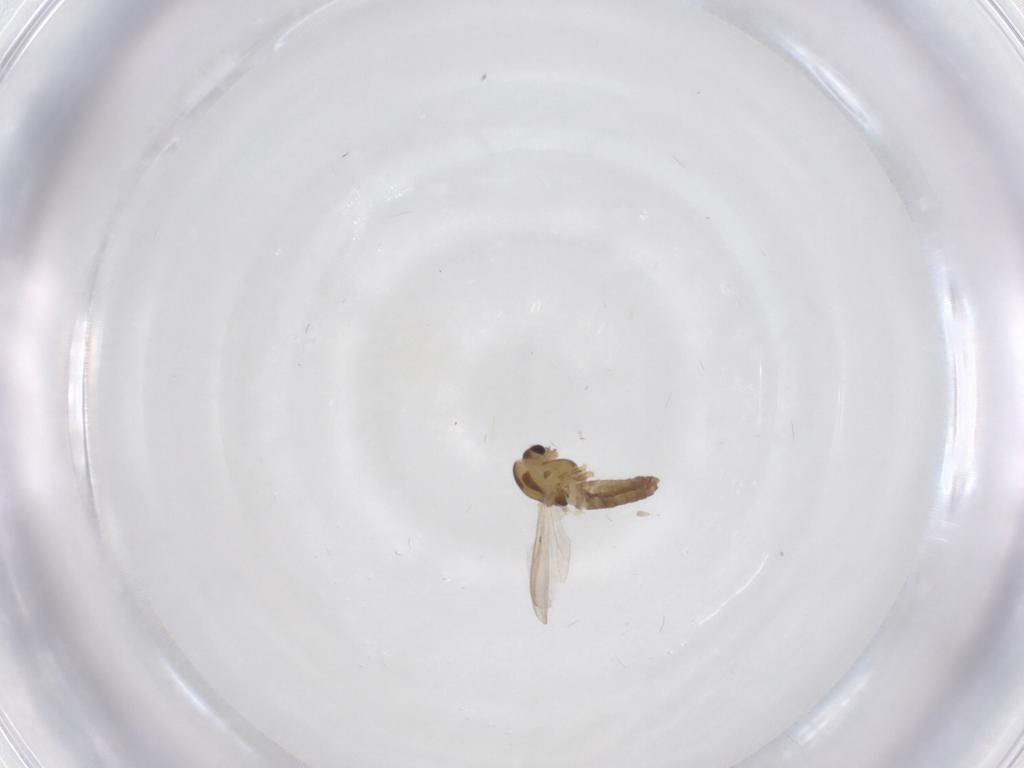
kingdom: Animalia
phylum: Arthropoda
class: Insecta
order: Diptera
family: Chironomidae
